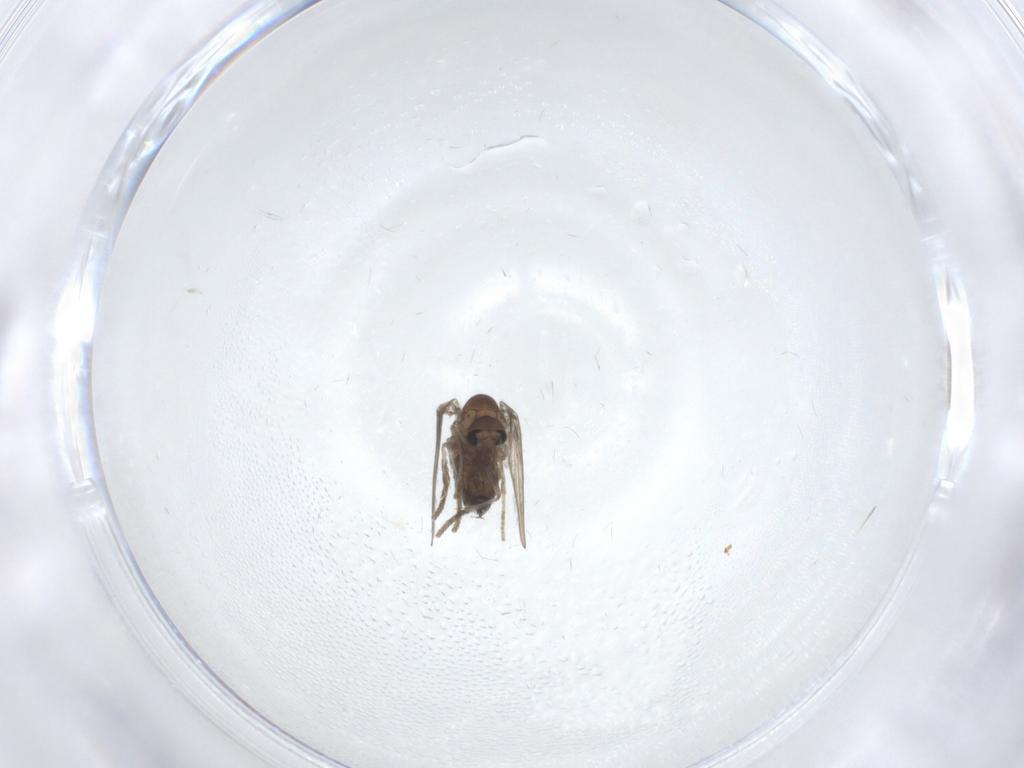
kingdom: Animalia
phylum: Arthropoda
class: Insecta
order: Diptera
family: Psychodidae
